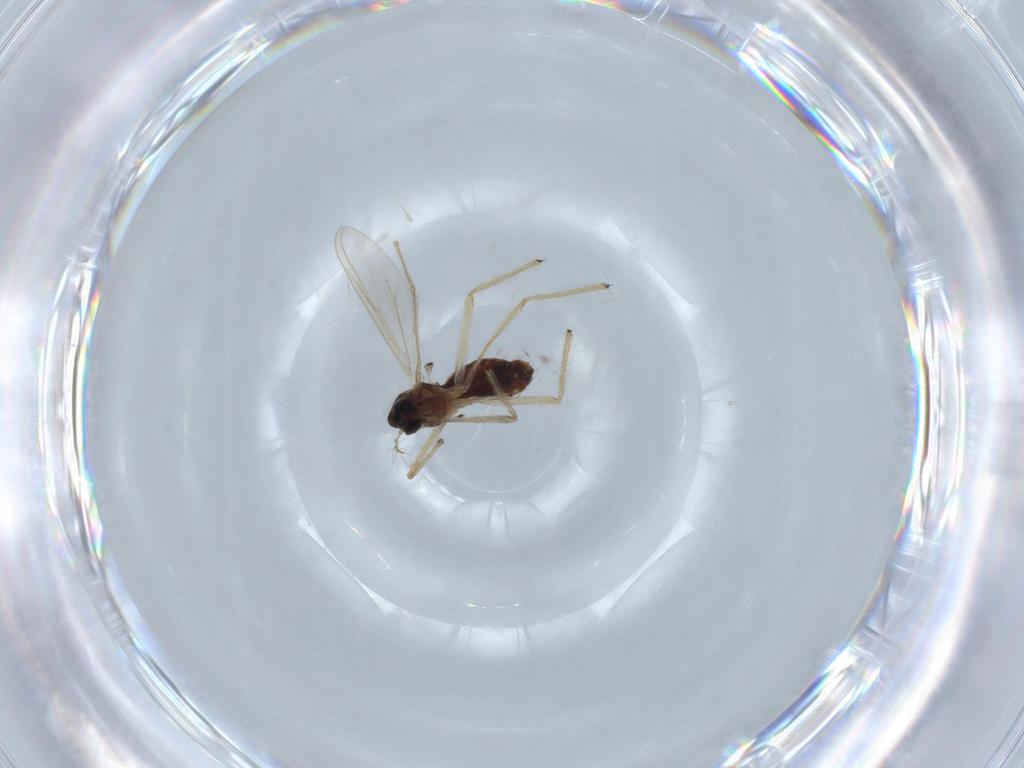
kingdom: Animalia
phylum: Arthropoda
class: Insecta
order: Diptera
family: Chironomidae
